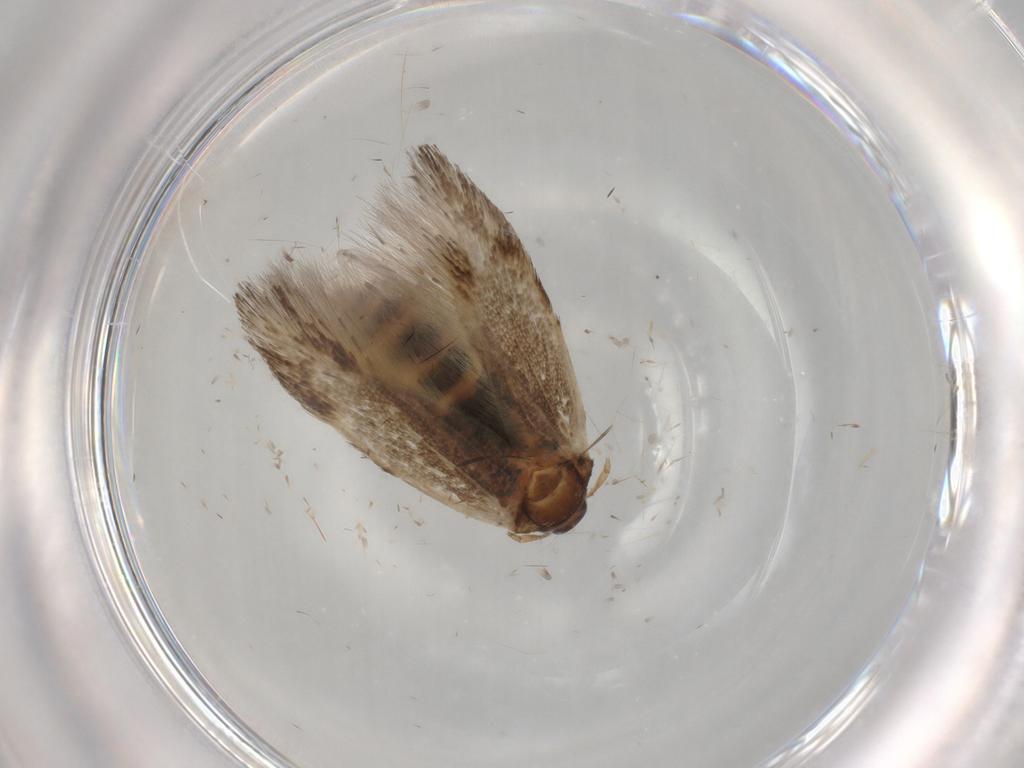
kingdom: Animalia
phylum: Arthropoda
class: Insecta
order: Lepidoptera
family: Cosmopterigidae
